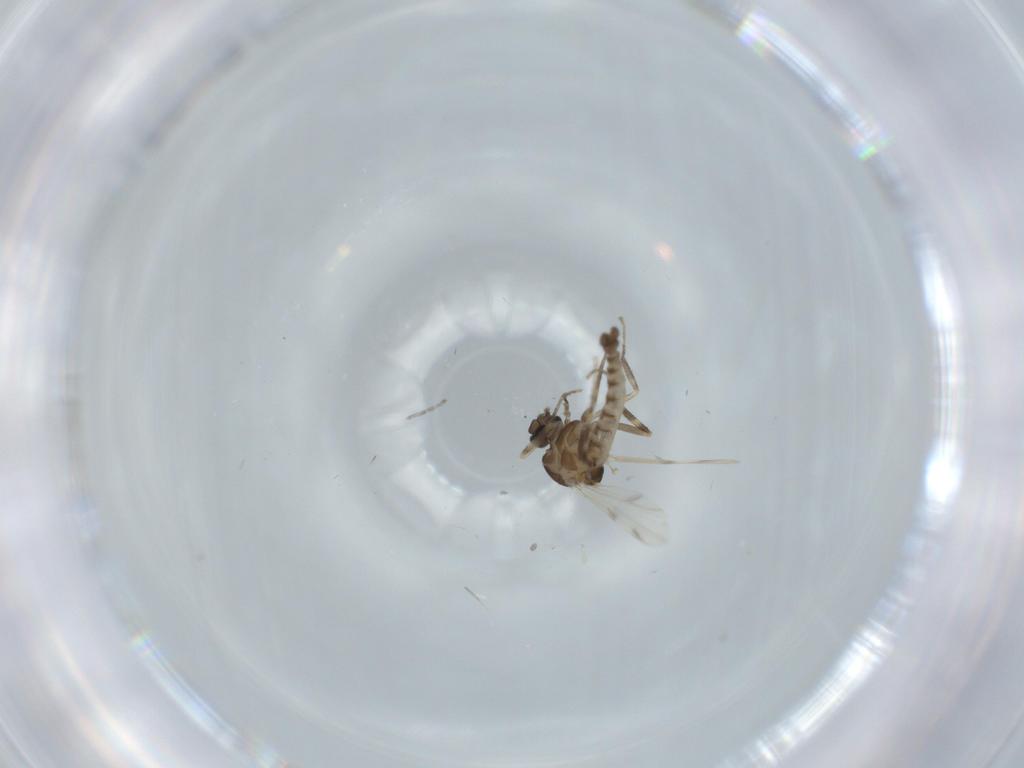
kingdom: Animalia
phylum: Arthropoda
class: Insecta
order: Diptera
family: Ceratopogonidae
